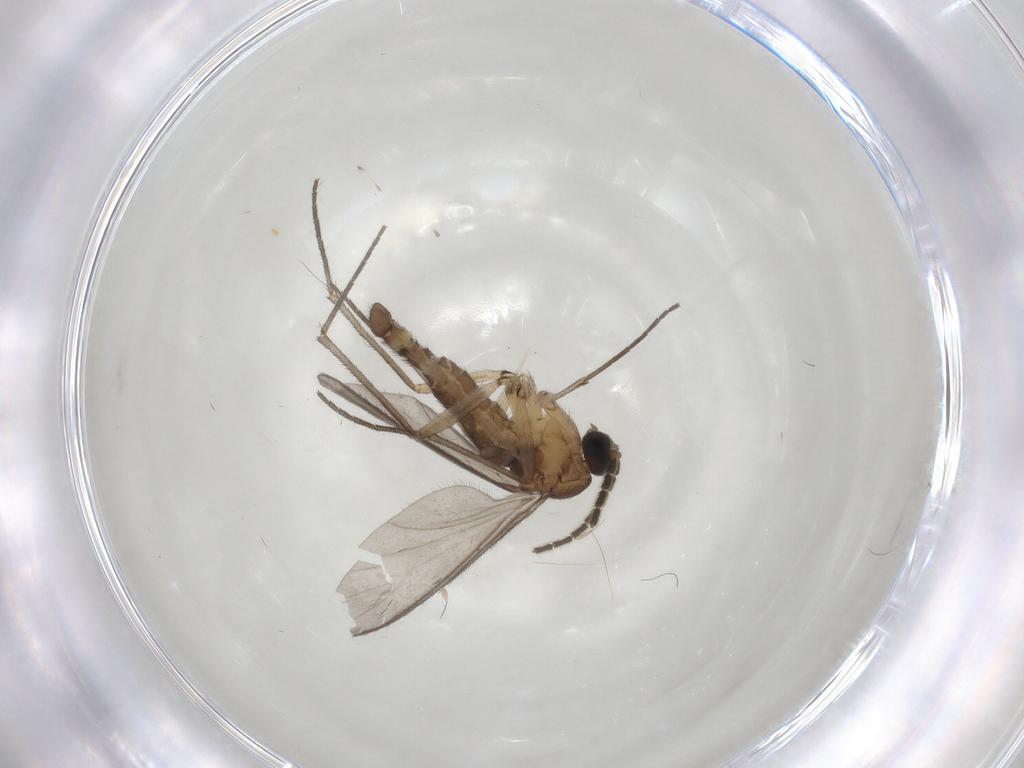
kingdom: Animalia
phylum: Arthropoda
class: Insecta
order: Diptera
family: Sciaridae
